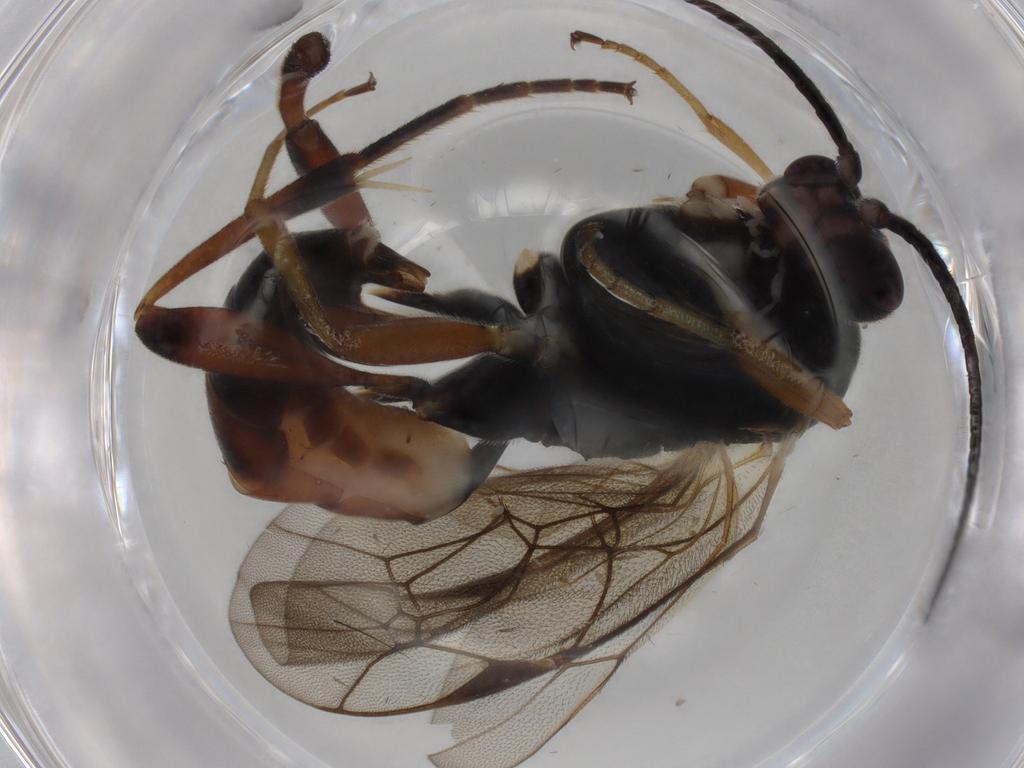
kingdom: Animalia
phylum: Arthropoda
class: Insecta
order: Hymenoptera
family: Ichneumonidae
